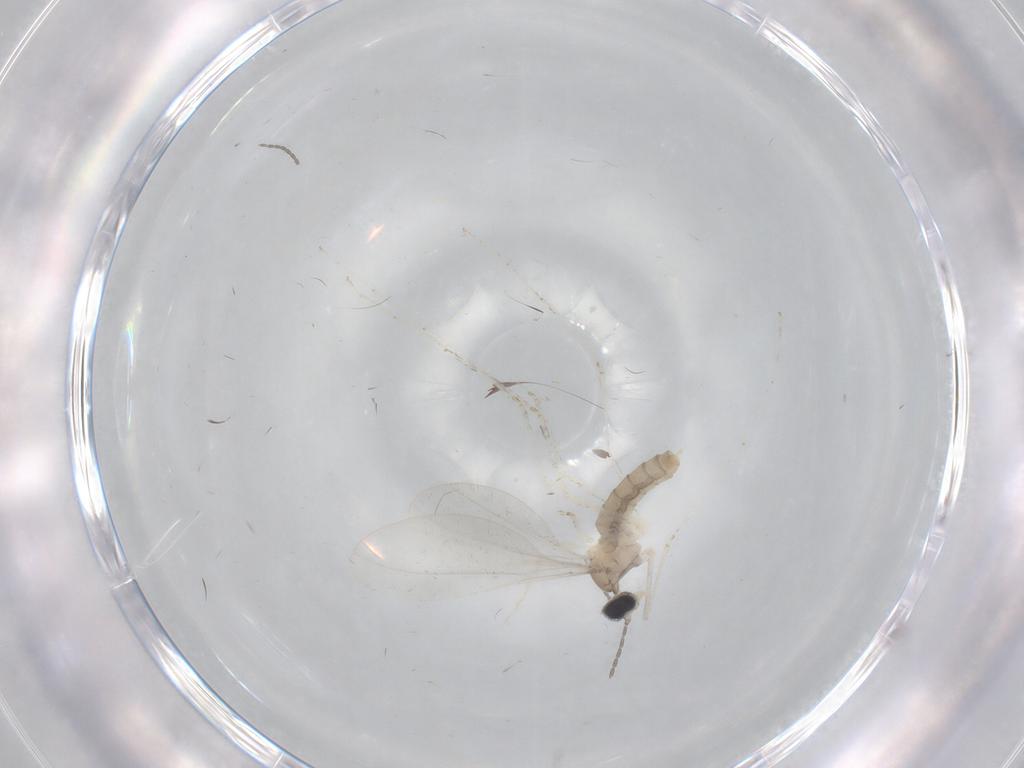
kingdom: Animalia
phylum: Arthropoda
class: Insecta
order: Diptera
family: Cecidomyiidae
